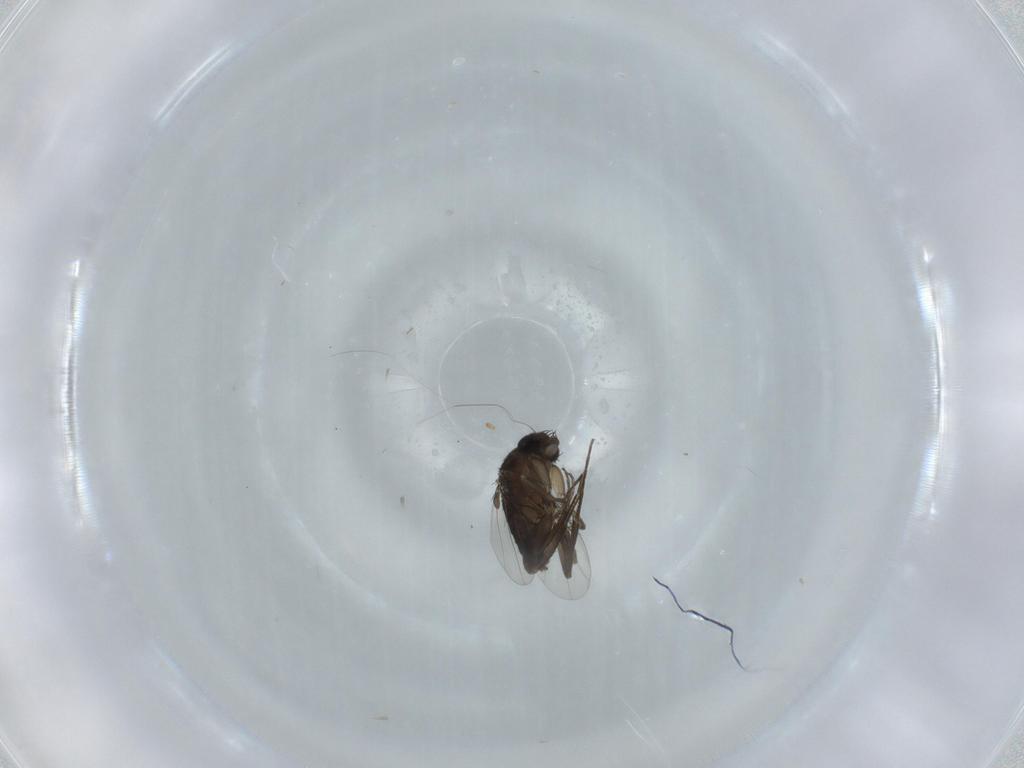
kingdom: Animalia
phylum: Arthropoda
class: Insecta
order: Diptera
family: Phoridae
